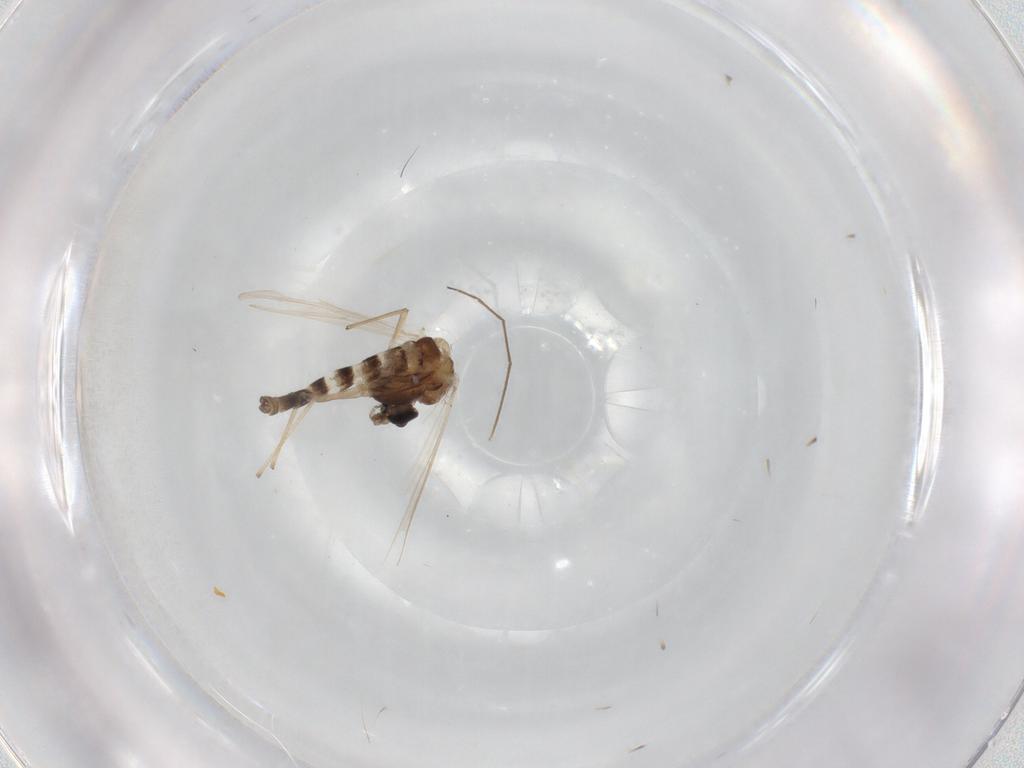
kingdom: Animalia
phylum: Arthropoda
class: Insecta
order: Diptera
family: Chironomidae
